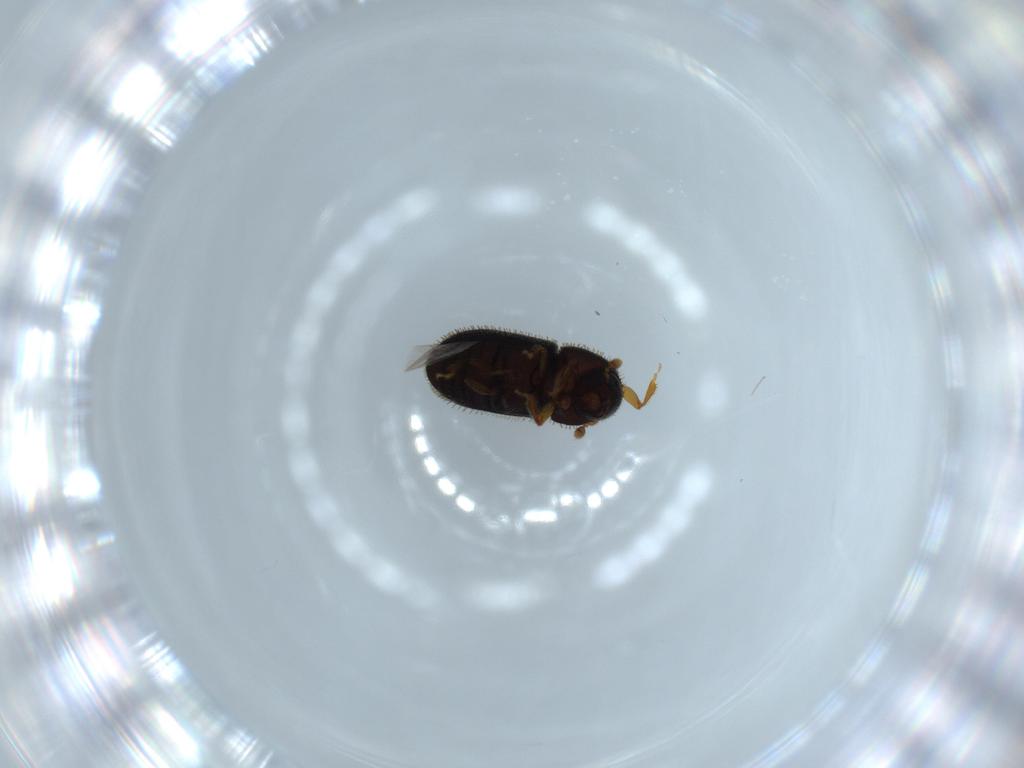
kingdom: Animalia
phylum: Arthropoda
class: Insecta
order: Coleoptera
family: Curculionidae
